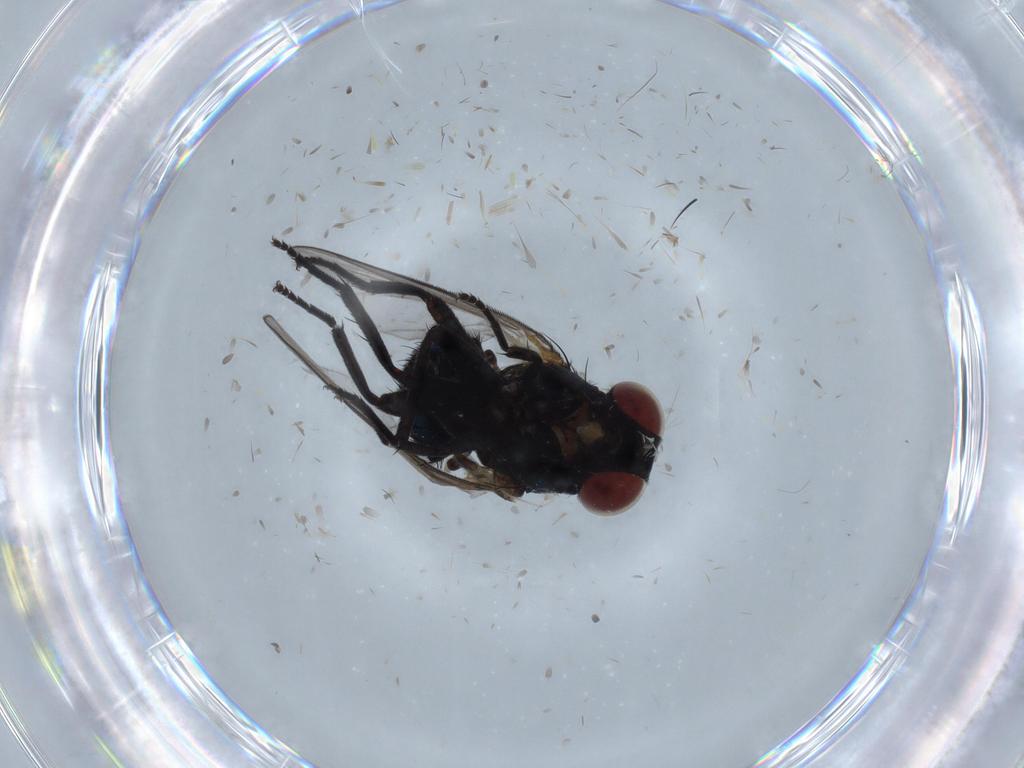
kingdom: Animalia
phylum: Arthropoda
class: Insecta
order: Diptera
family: Chloropidae
